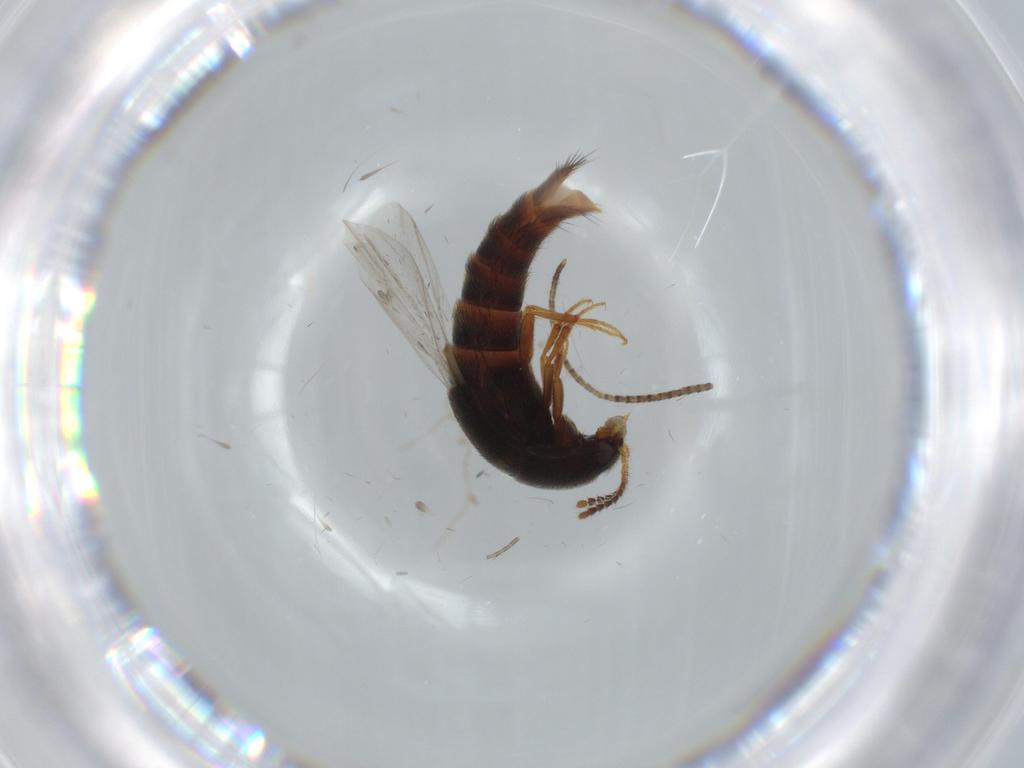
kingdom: Animalia
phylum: Arthropoda
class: Insecta
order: Coleoptera
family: Staphylinidae
